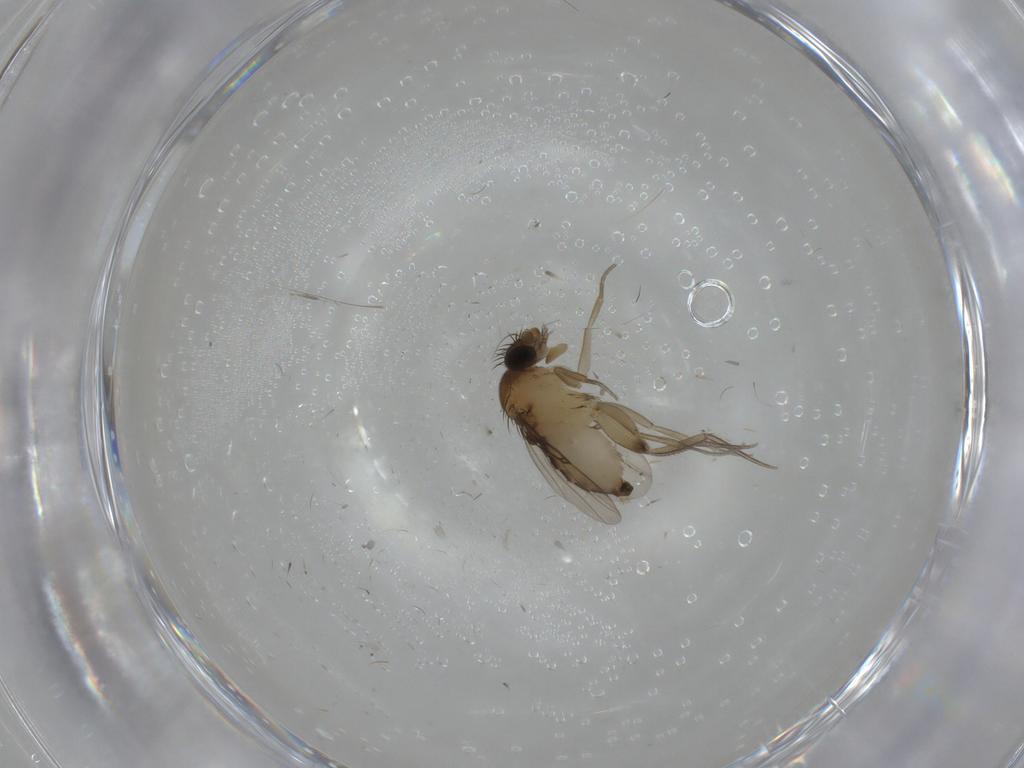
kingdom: Animalia
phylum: Arthropoda
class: Insecta
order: Diptera
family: Phoridae
